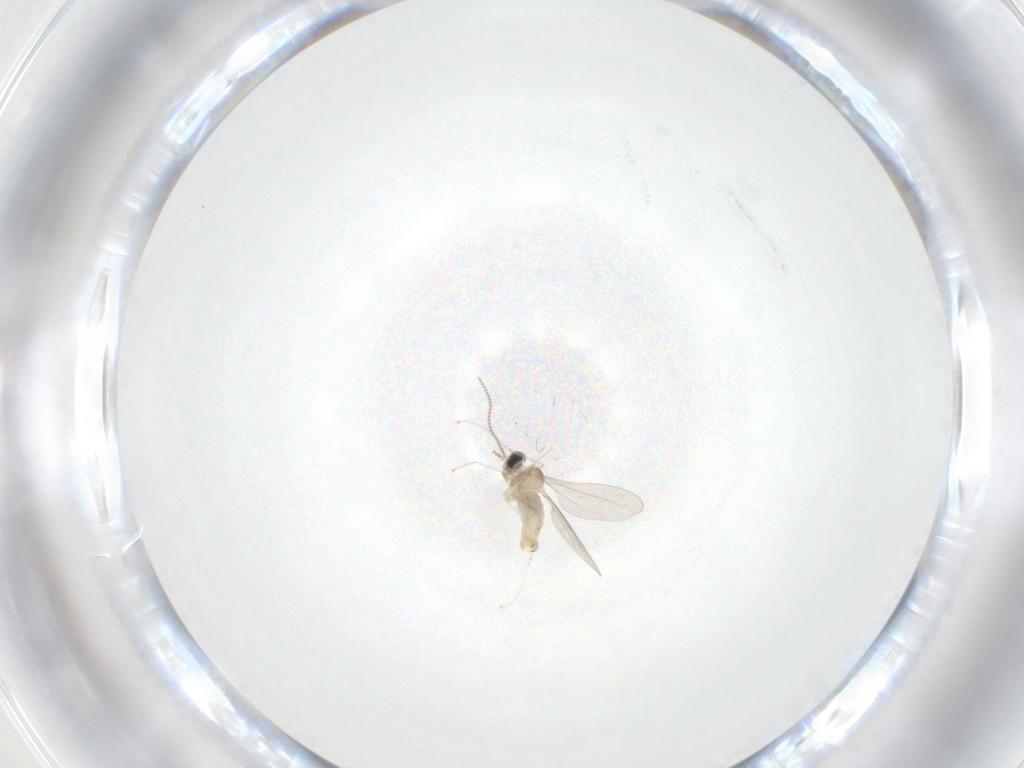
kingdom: Animalia
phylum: Arthropoda
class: Insecta
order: Diptera
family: Cecidomyiidae
